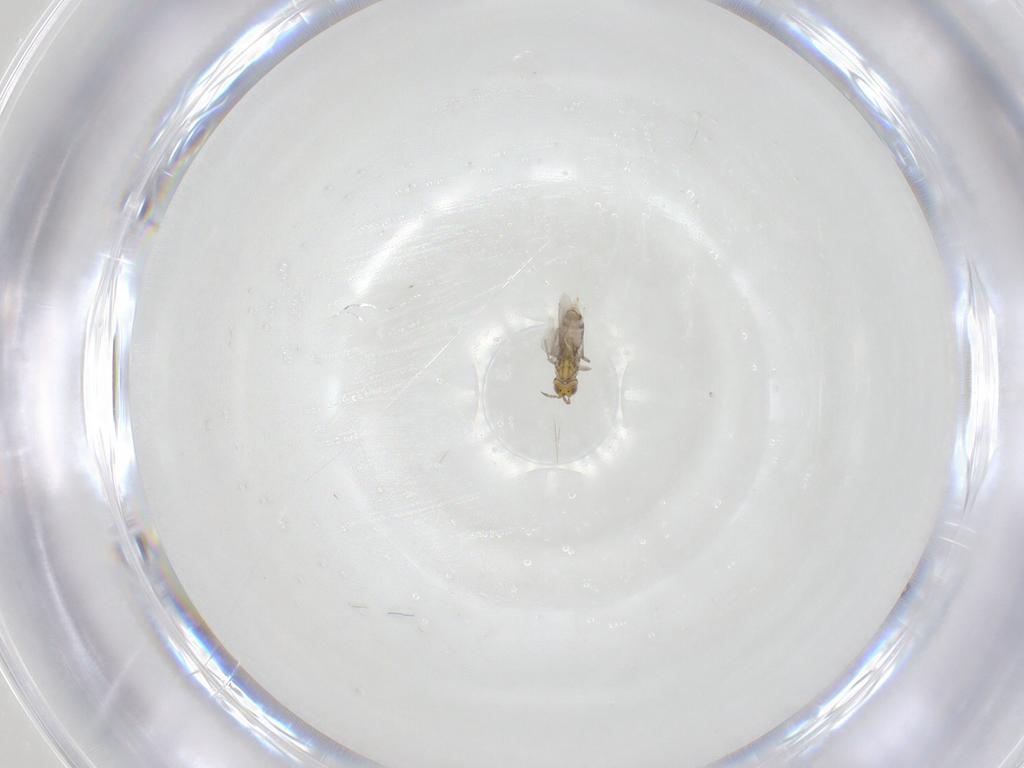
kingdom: Animalia
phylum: Arthropoda
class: Insecta
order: Hymenoptera
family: Aphelinidae
